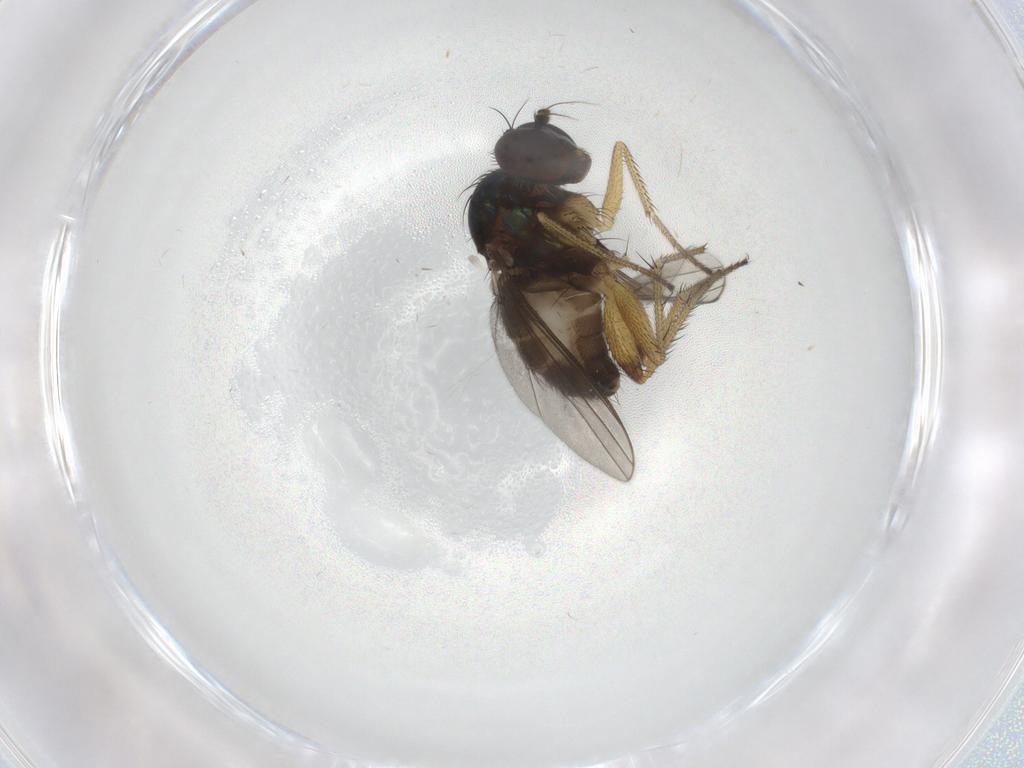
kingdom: Animalia
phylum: Arthropoda
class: Insecta
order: Diptera
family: Dolichopodidae
